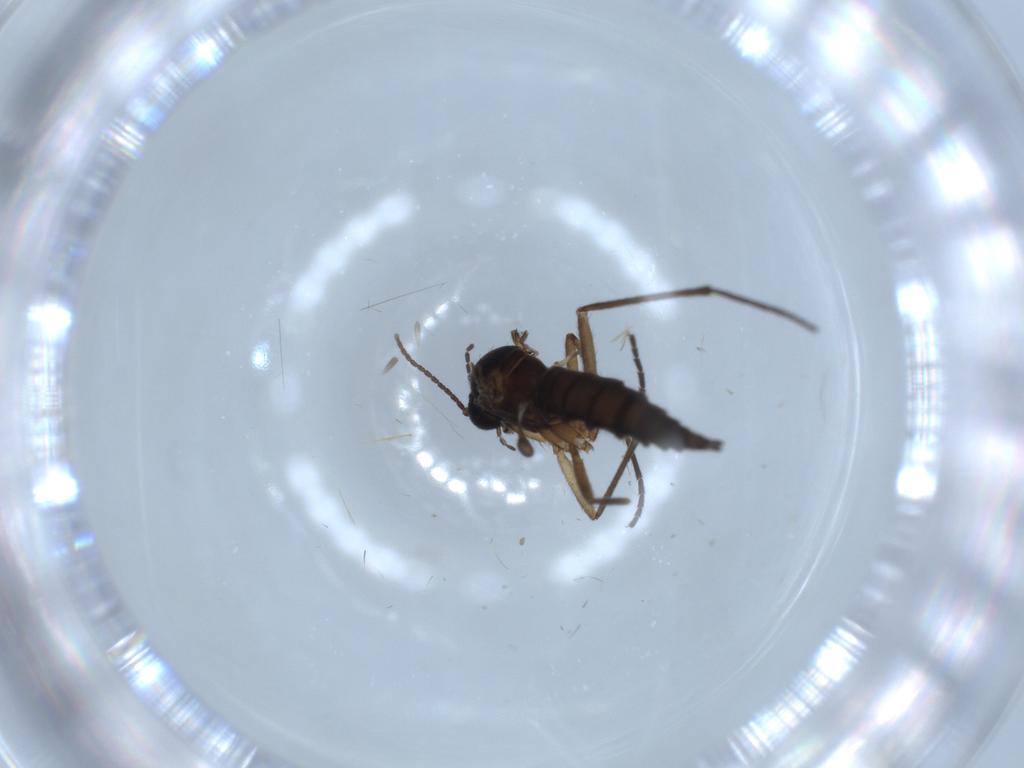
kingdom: Animalia
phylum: Arthropoda
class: Insecta
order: Diptera
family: Sciaridae
